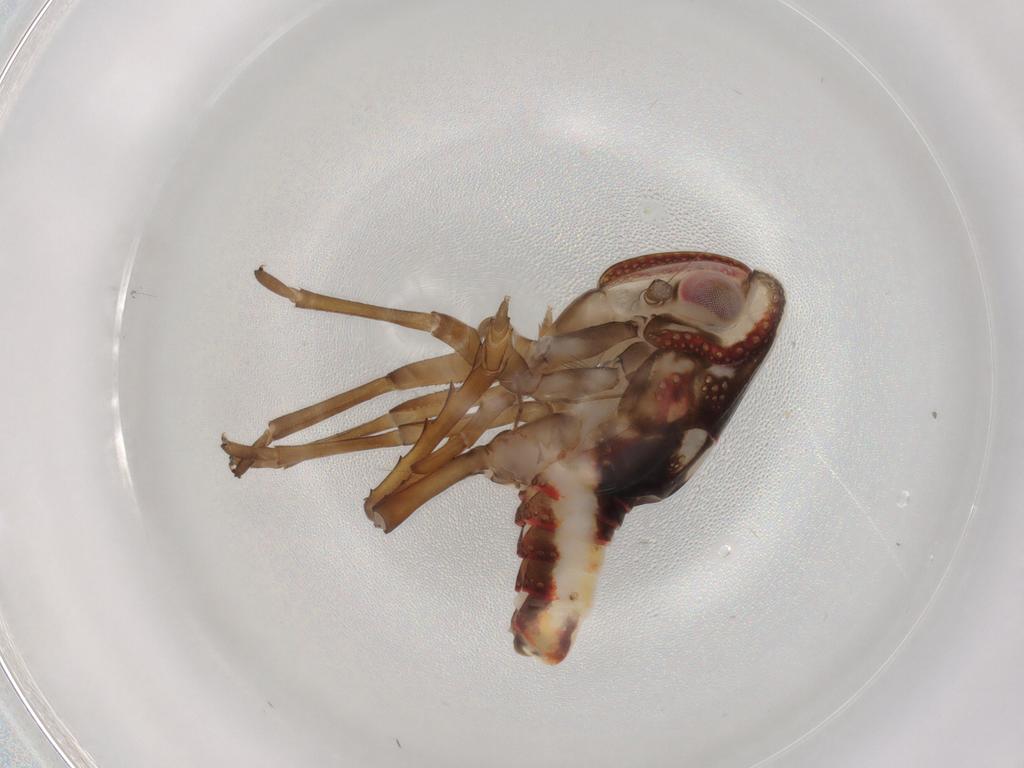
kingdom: Animalia
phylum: Arthropoda
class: Insecta
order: Hemiptera
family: Nogodinidae
